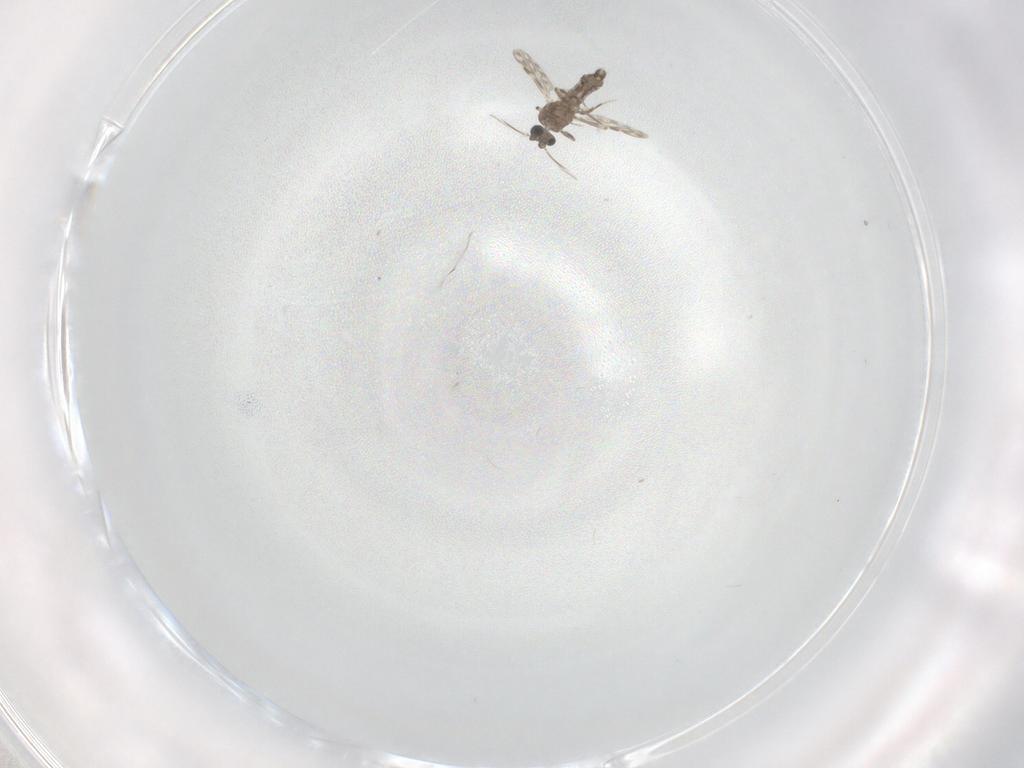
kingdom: Animalia
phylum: Arthropoda
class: Insecta
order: Diptera
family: Cecidomyiidae
